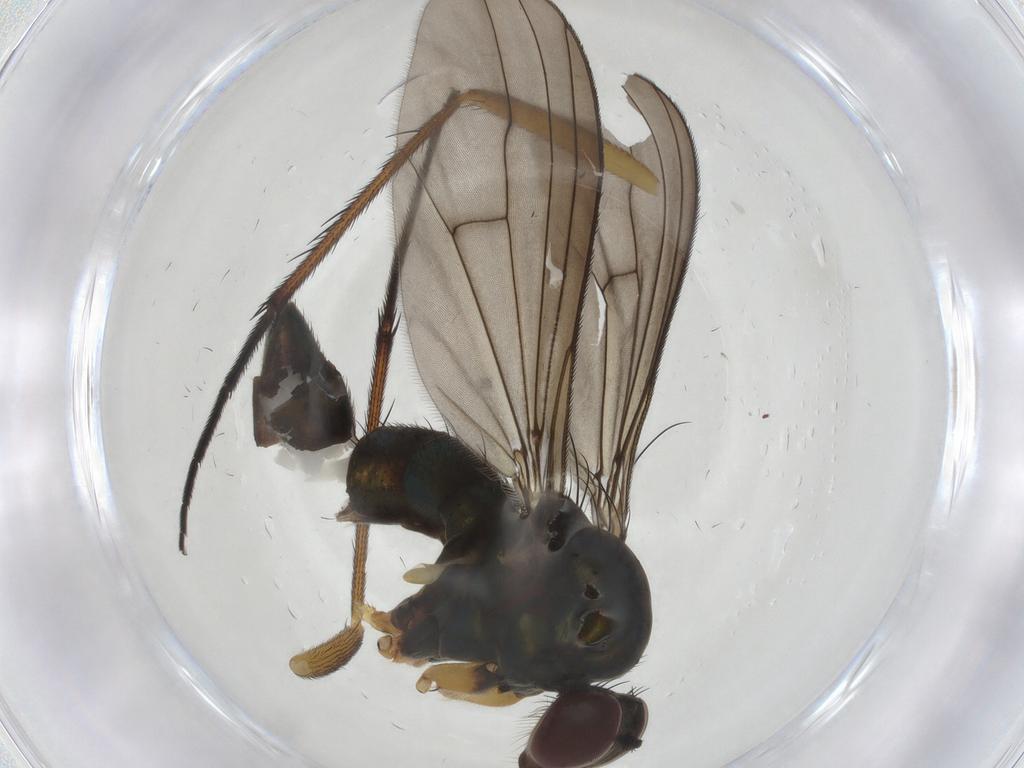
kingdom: Animalia
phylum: Arthropoda
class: Insecta
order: Diptera
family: Dolichopodidae
